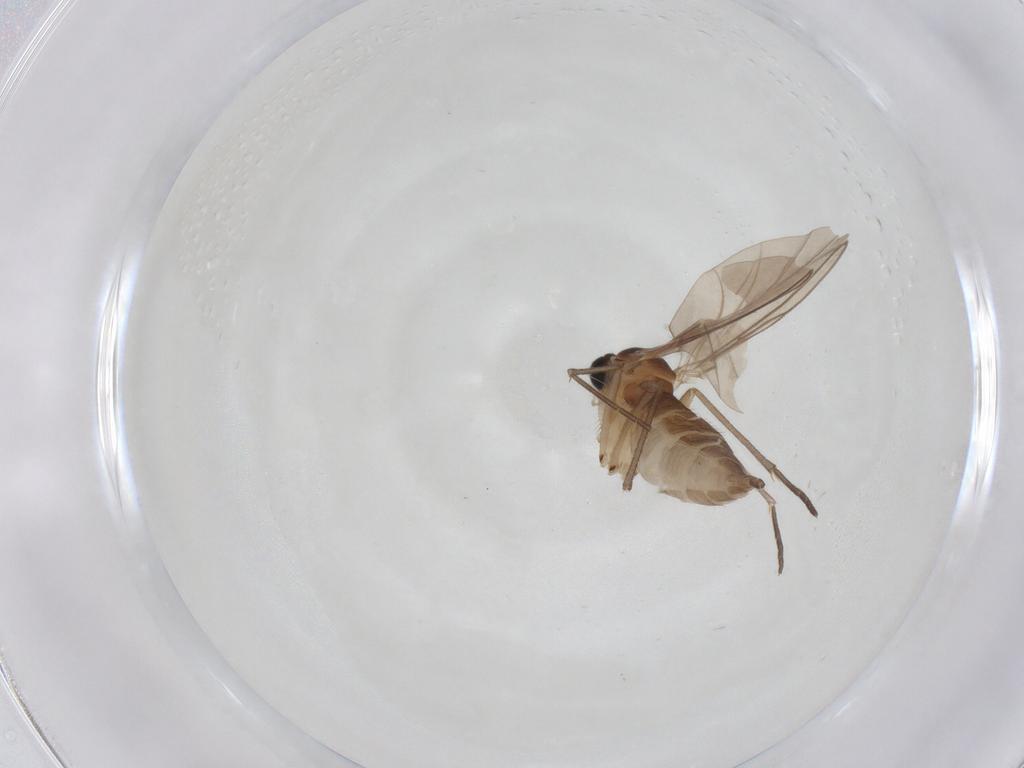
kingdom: Animalia
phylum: Arthropoda
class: Insecta
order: Diptera
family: Sciaridae
